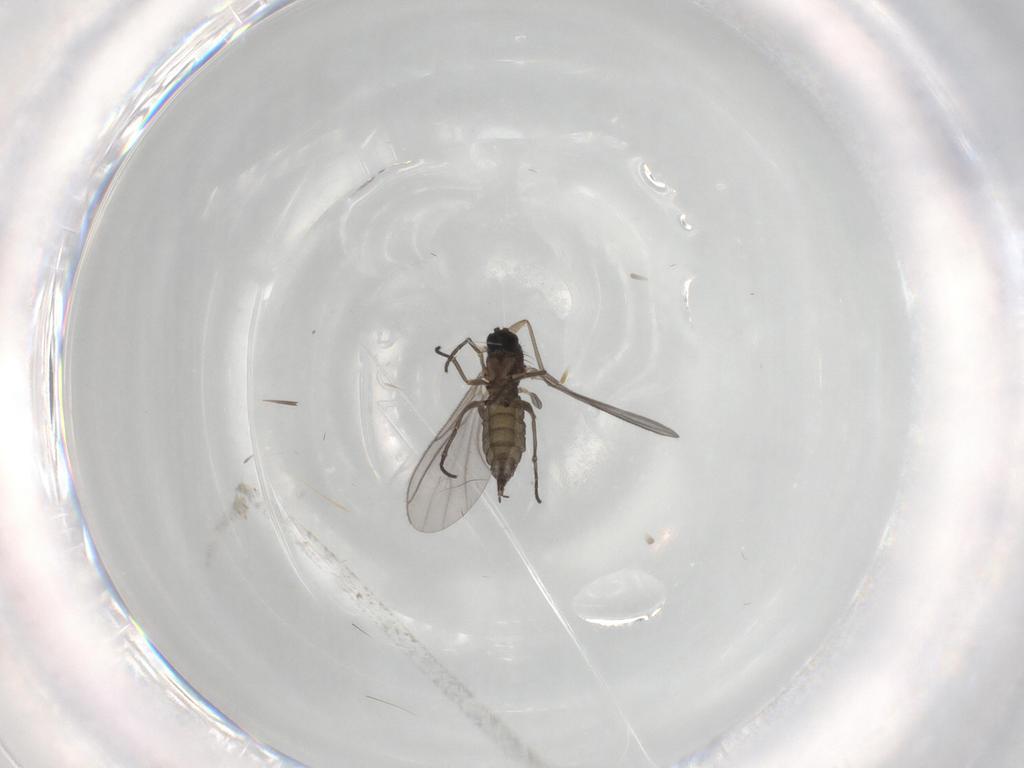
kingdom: Animalia
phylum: Arthropoda
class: Insecta
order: Diptera
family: Sciaridae
